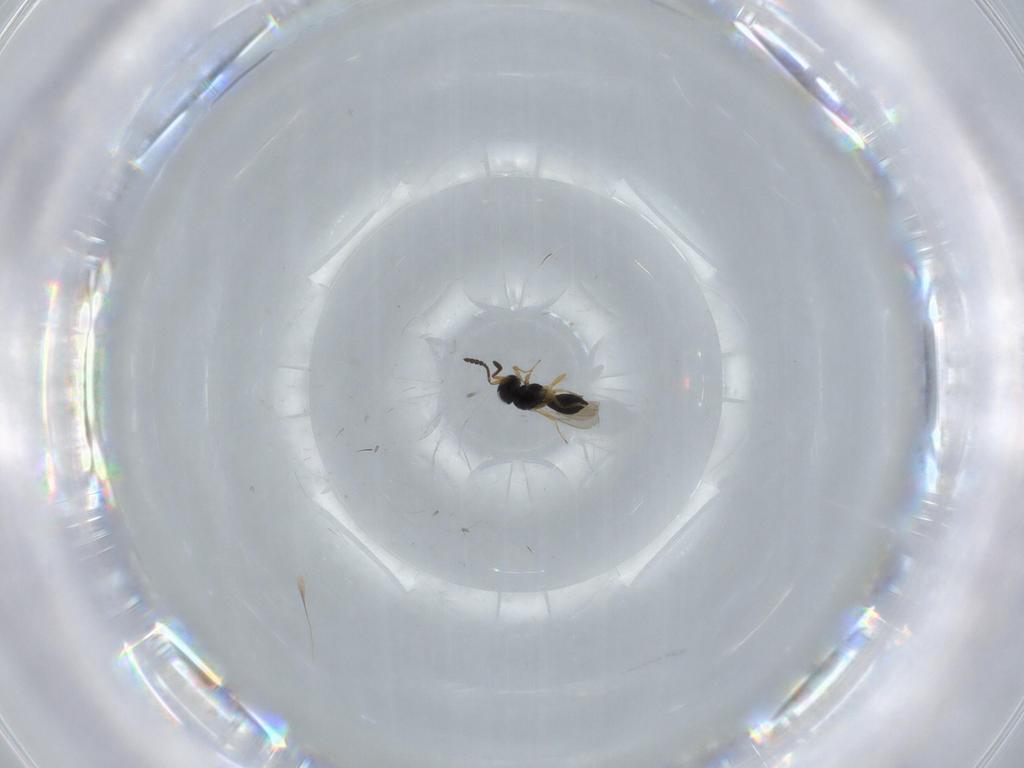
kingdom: Animalia
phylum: Arthropoda
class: Insecta
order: Hymenoptera
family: Scelionidae
